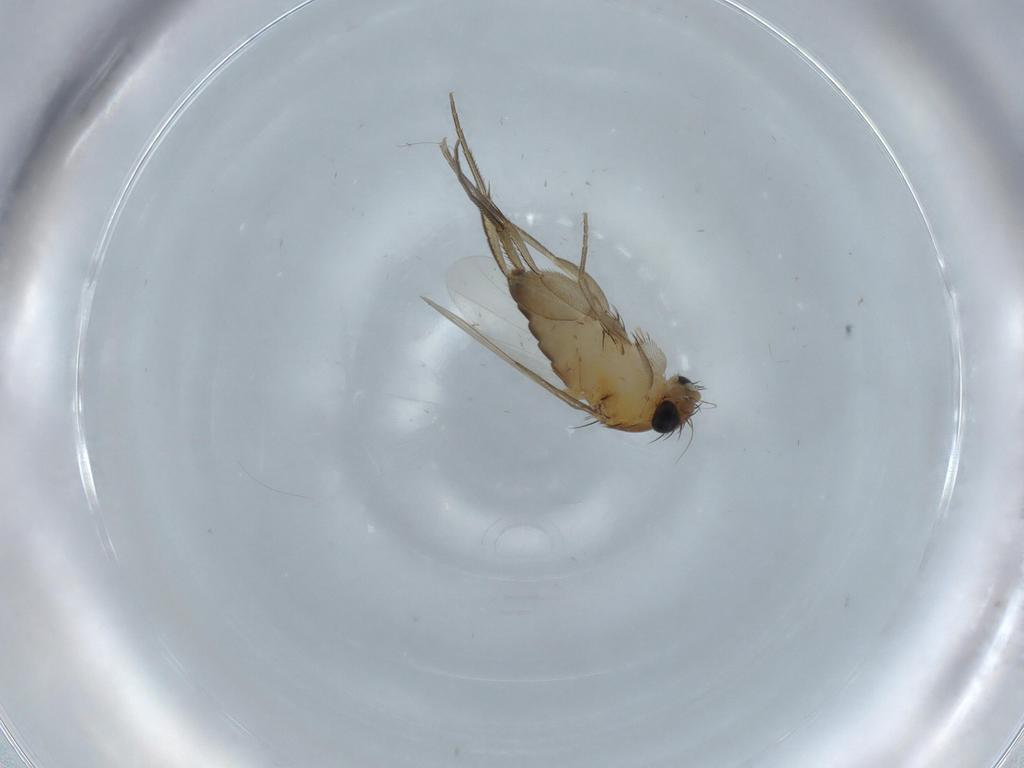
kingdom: Animalia
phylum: Arthropoda
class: Insecta
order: Diptera
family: Phoridae
